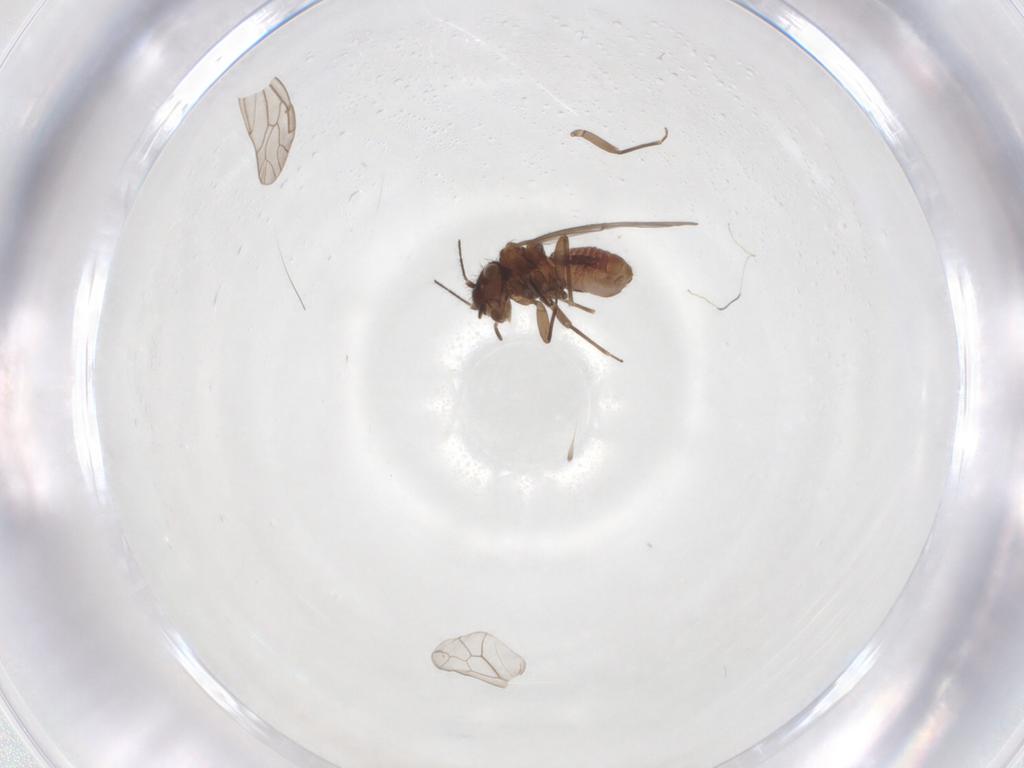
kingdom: Animalia
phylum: Arthropoda
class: Insecta
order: Psocodea
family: Ectopsocidae
